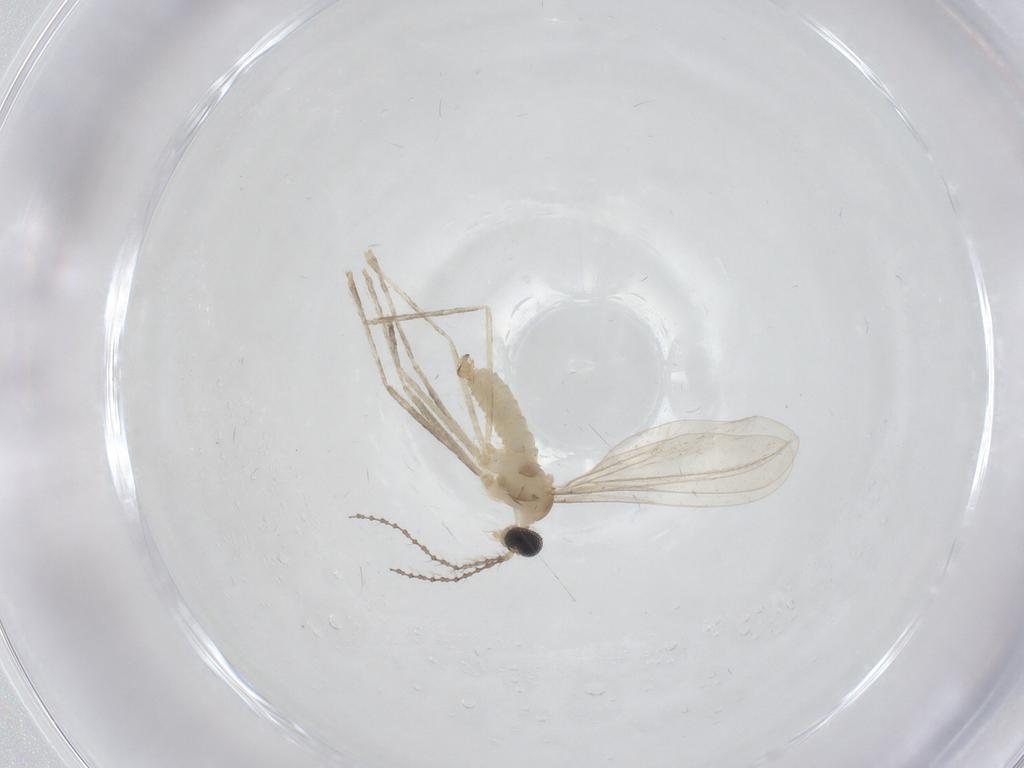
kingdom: Animalia
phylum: Arthropoda
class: Insecta
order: Diptera
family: Cecidomyiidae
